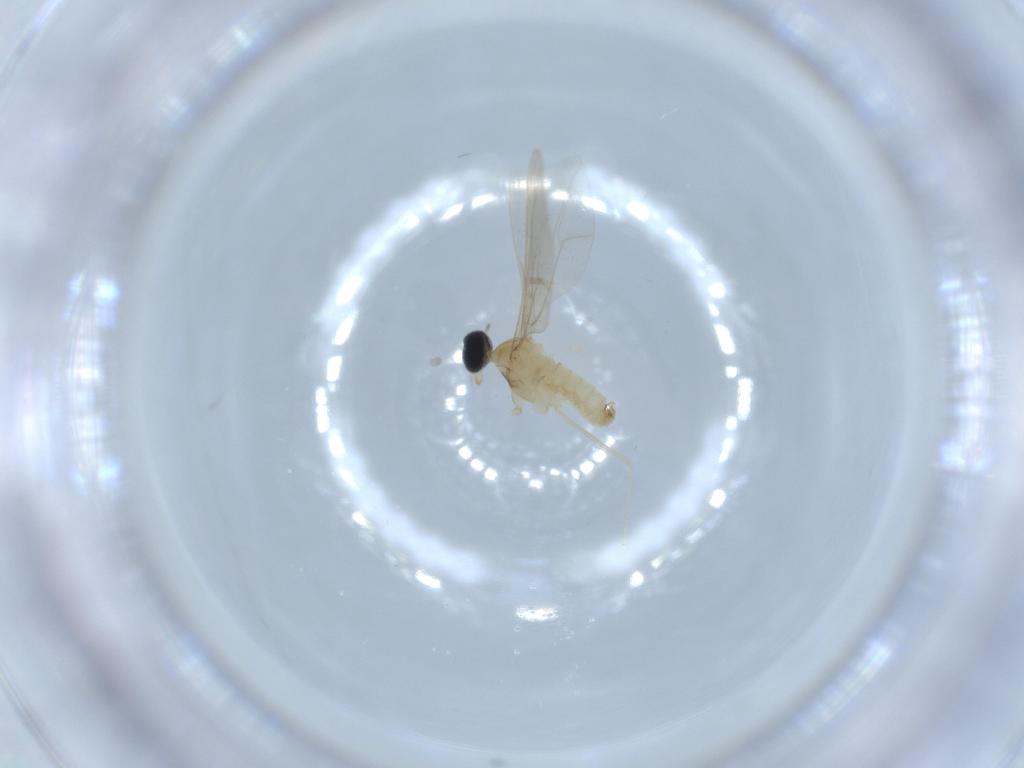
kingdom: Animalia
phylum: Arthropoda
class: Insecta
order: Diptera
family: Cecidomyiidae
